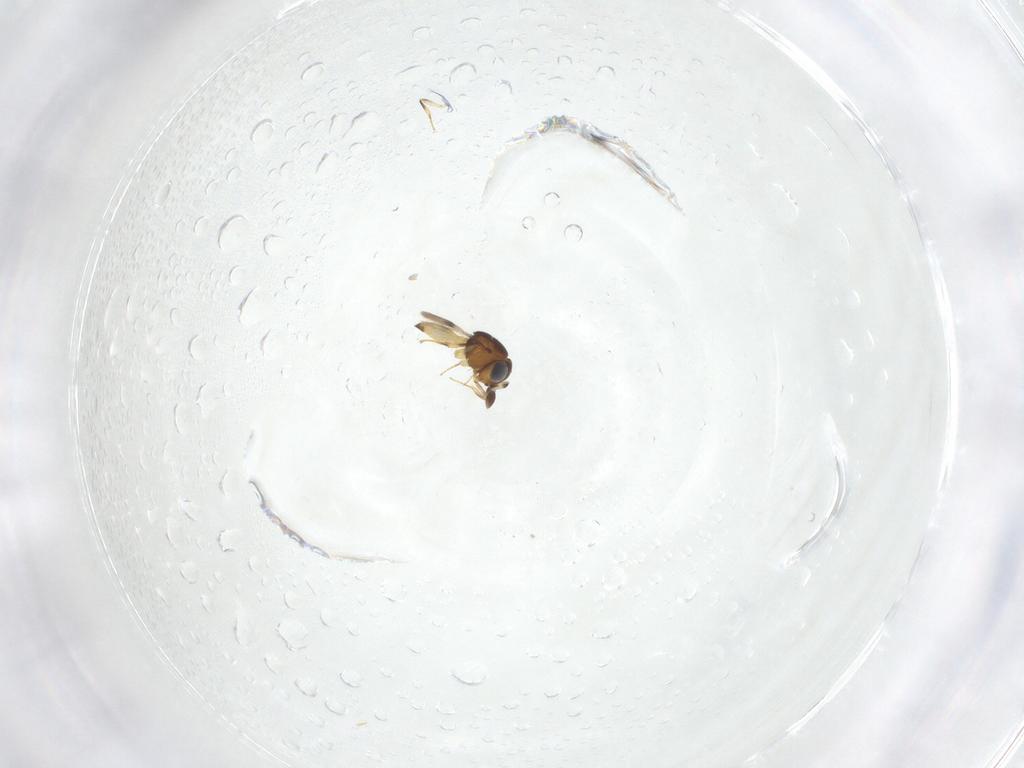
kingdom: Animalia
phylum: Arthropoda
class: Arachnida
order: Araneae
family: Pholcidae
